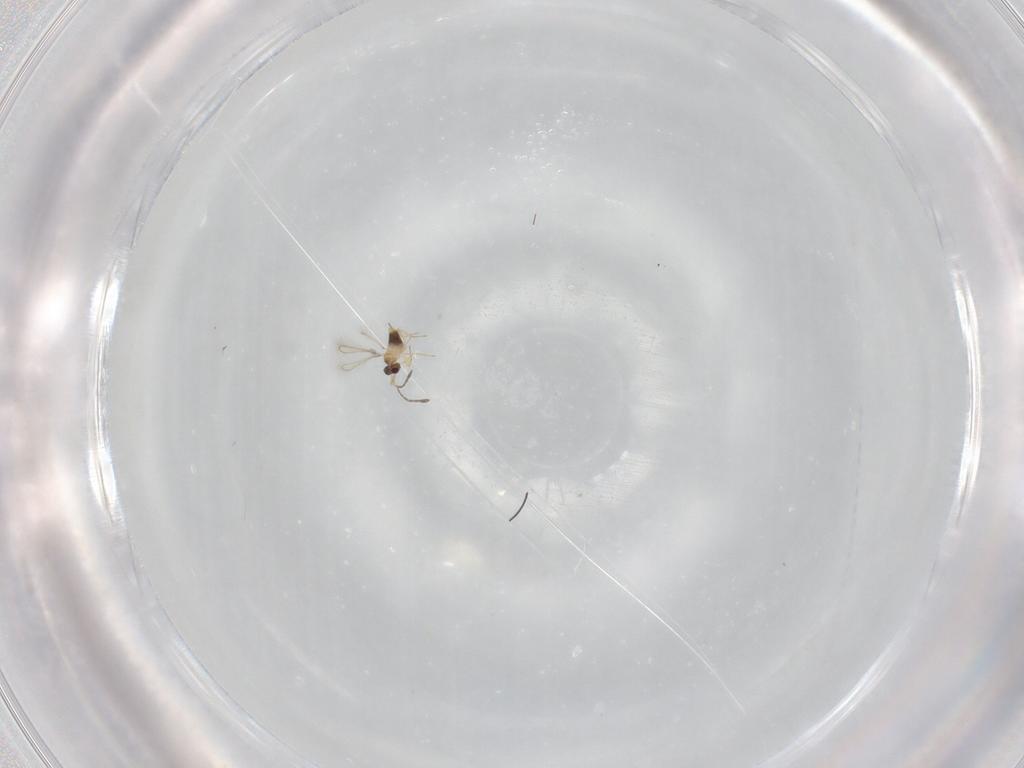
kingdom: Animalia
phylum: Arthropoda
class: Insecta
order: Hymenoptera
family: Mymaridae
